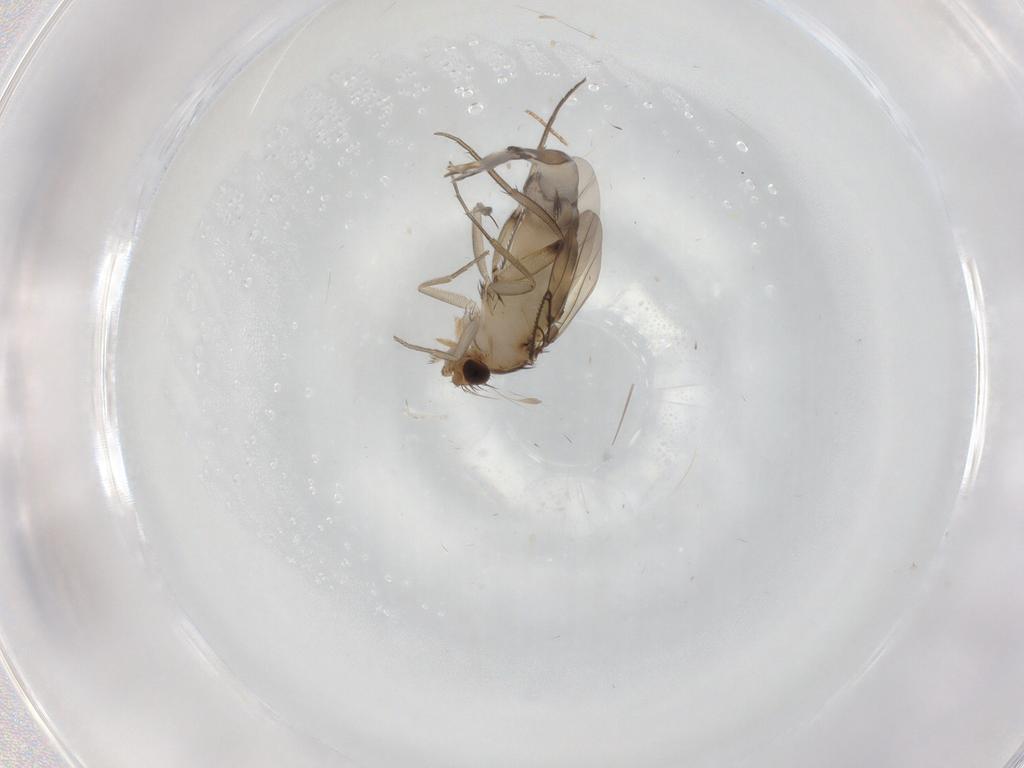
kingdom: Animalia
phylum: Arthropoda
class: Insecta
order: Diptera
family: Phoridae
